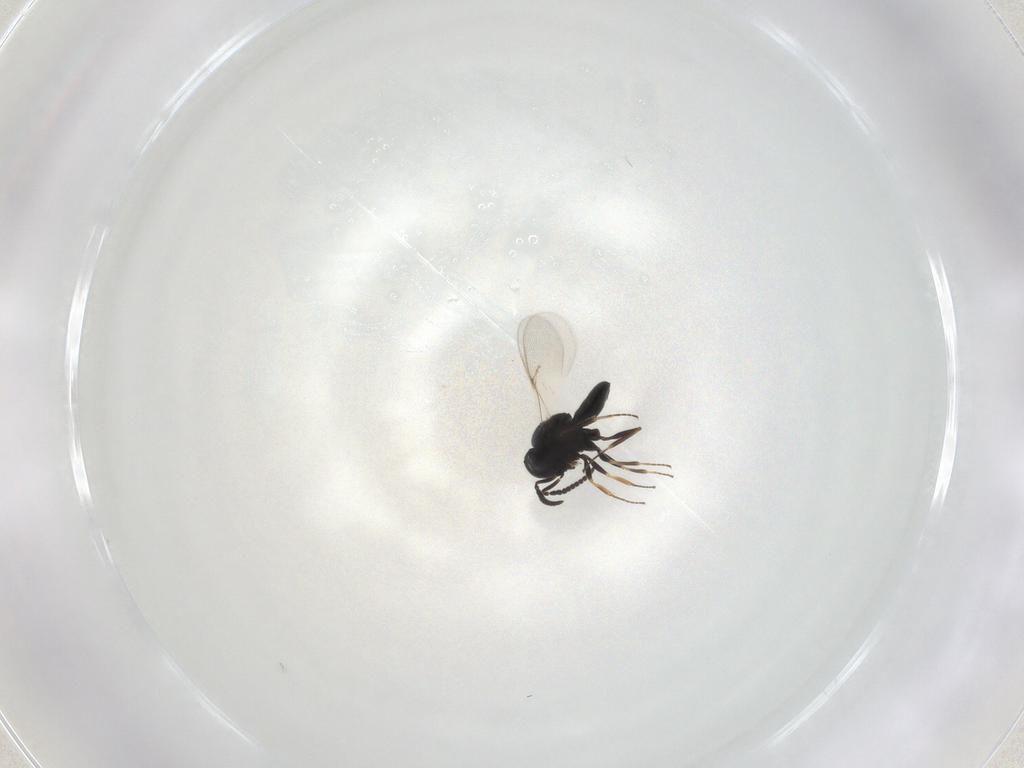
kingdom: Animalia
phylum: Arthropoda
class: Insecta
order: Hymenoptera
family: Scelionidae
